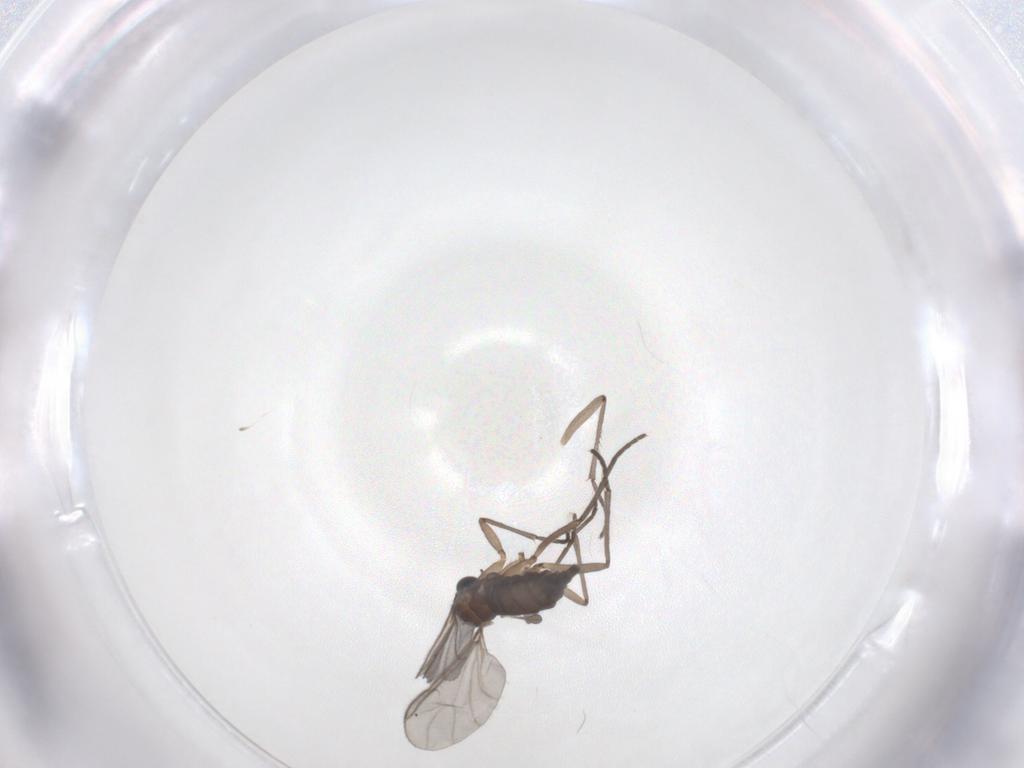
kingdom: Animalia
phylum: Arthropoda
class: Insecta
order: Diptera
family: Sciaridae
